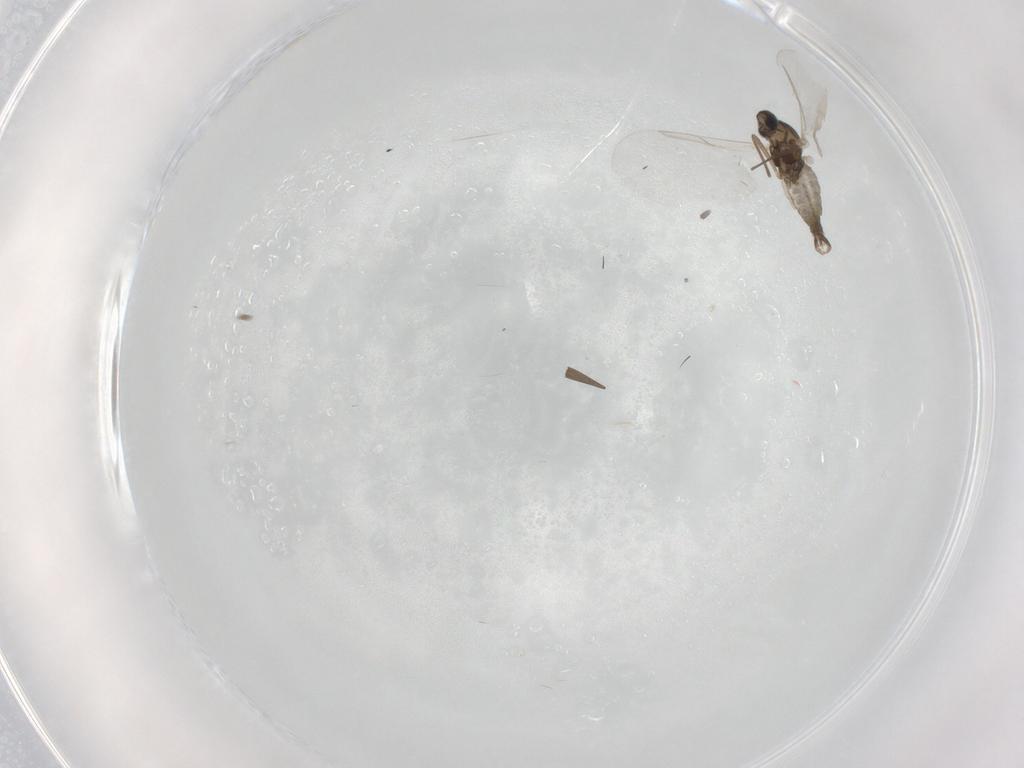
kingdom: Animalia
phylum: Arthropoda
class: Insecta
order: Diptera
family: Cecidomyiidae
